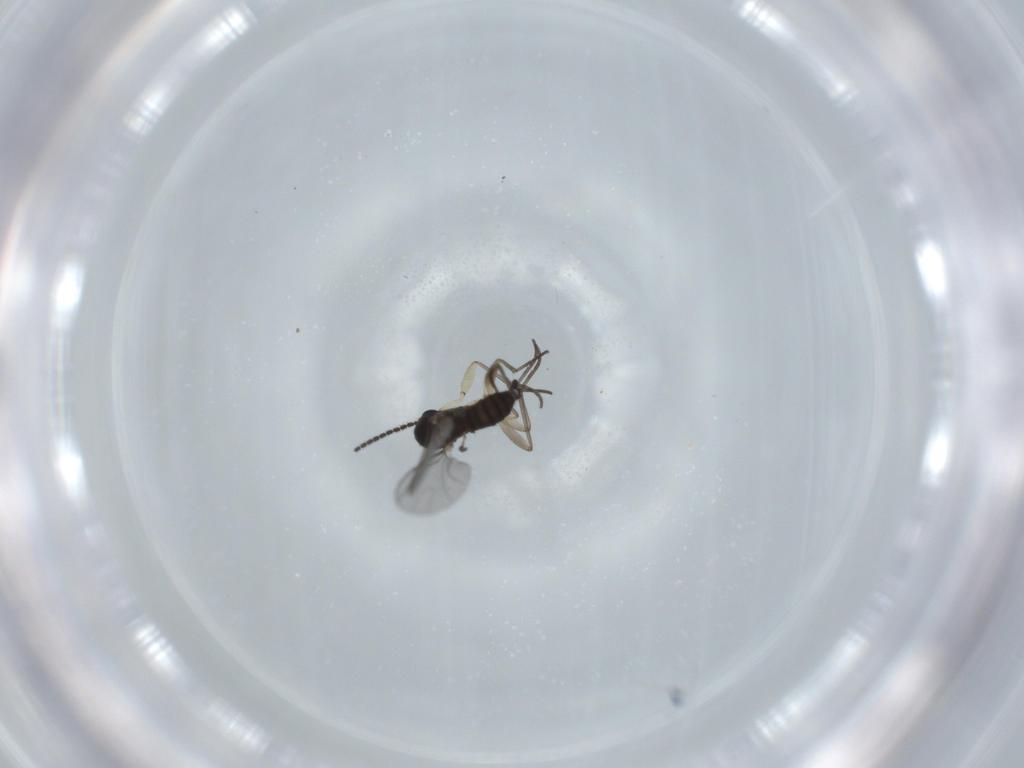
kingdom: Animalia
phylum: Arthropoda
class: Insecta
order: Diptera
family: Sciaridae
